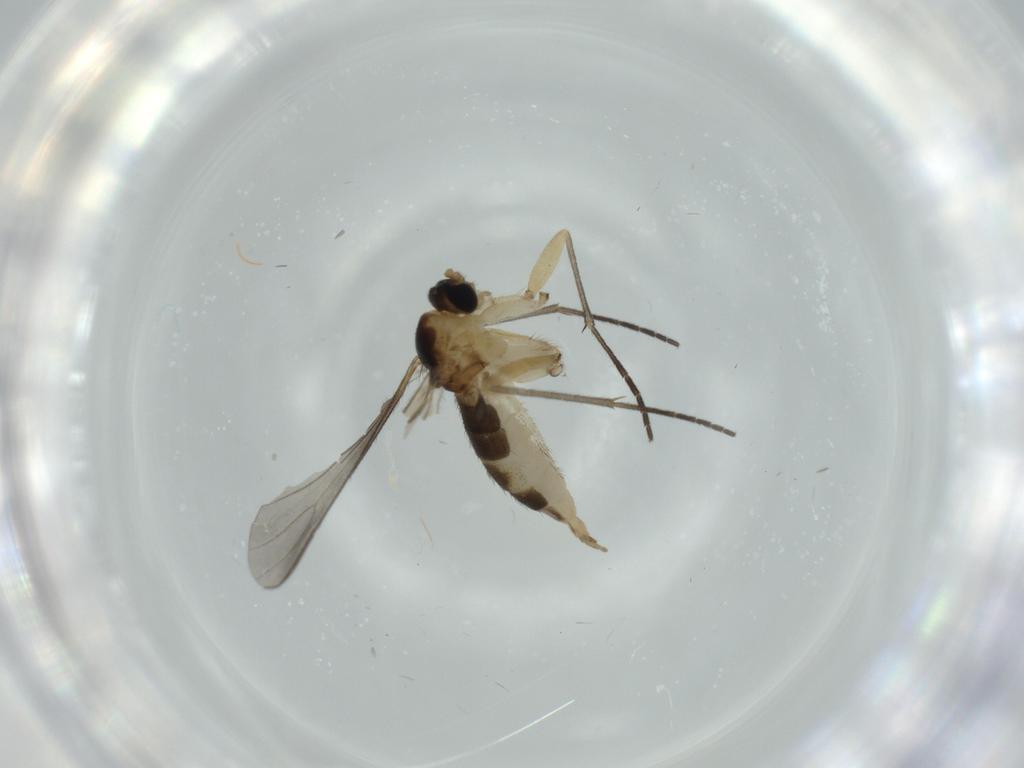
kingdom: Animalia
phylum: Arthropoda
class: Insecta
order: Diptera
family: Sciaridae
